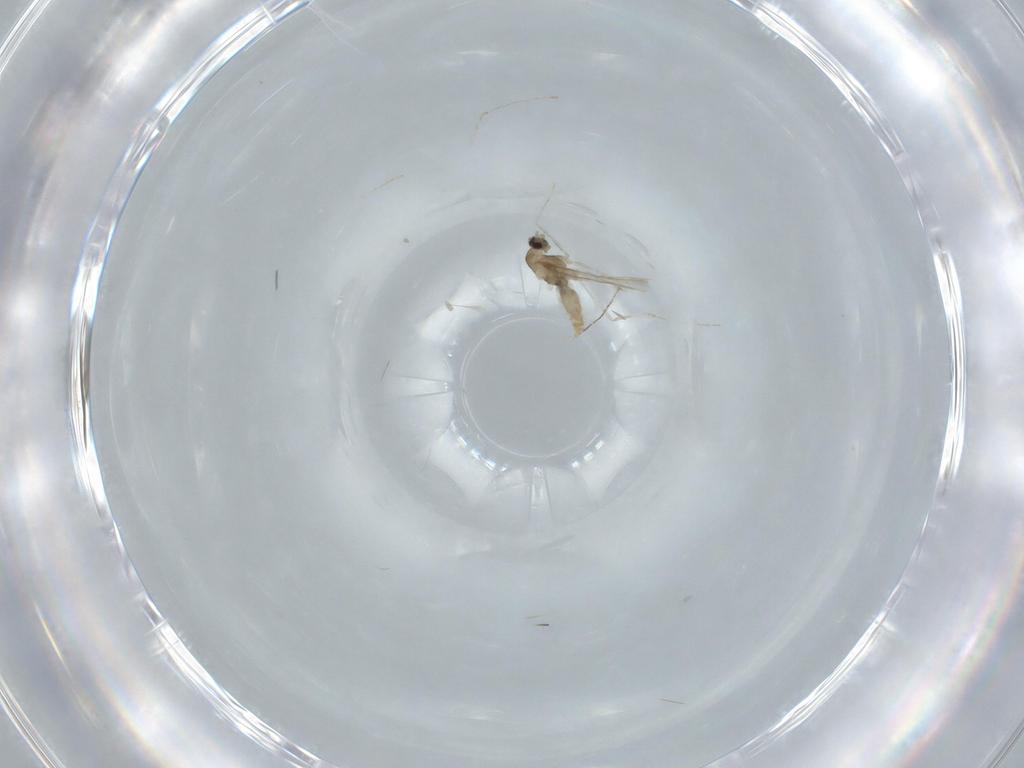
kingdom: Animalia
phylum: Arthropoda
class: Insecta
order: Diptera
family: Cecidomyiidae
